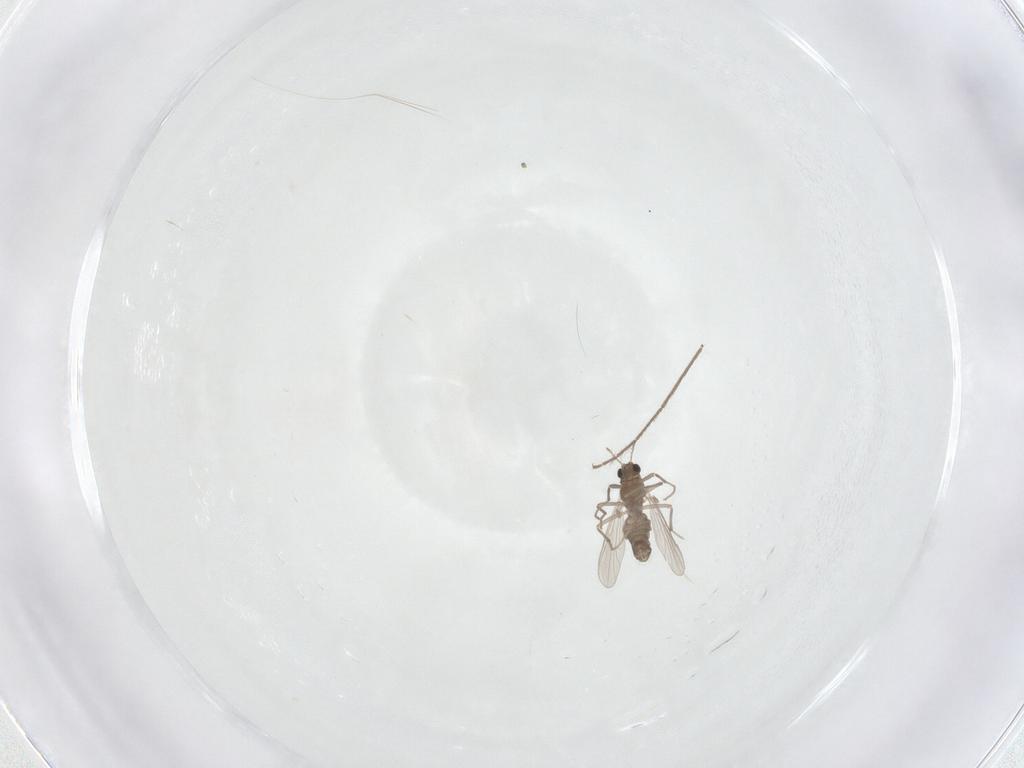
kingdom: Animalia
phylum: Arthropoda
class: Insecta
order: Diptera
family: Chironomidae
